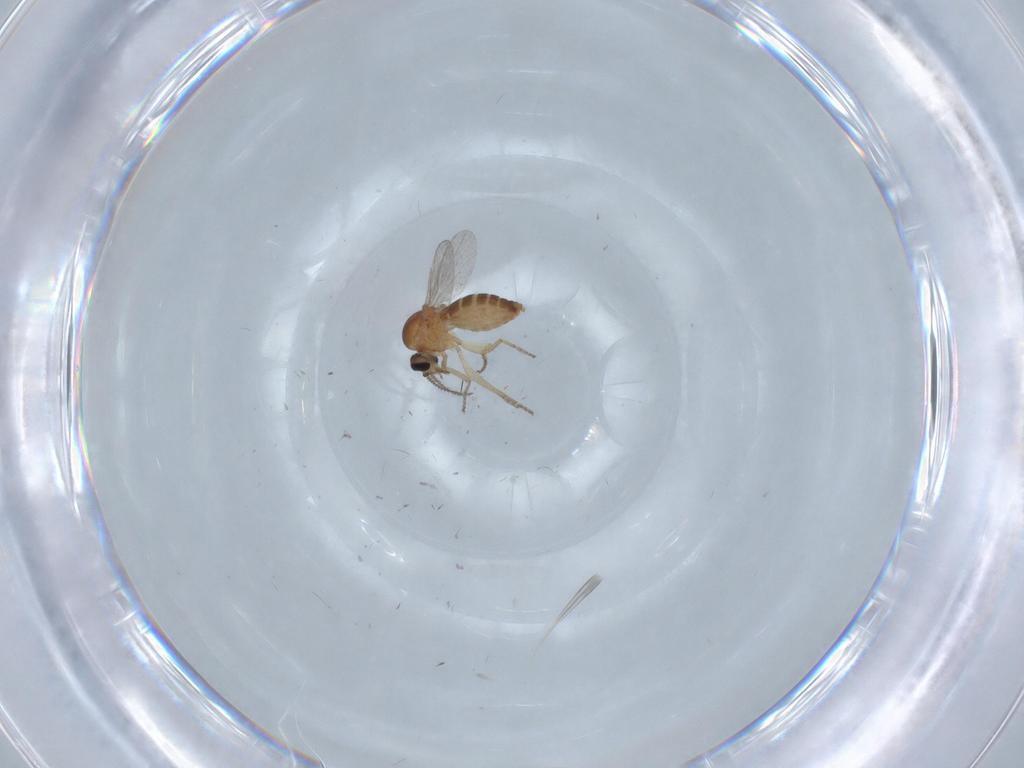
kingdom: Animalia
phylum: Arthropoda
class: Insecta
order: Diptera
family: Ceratopogonidae
